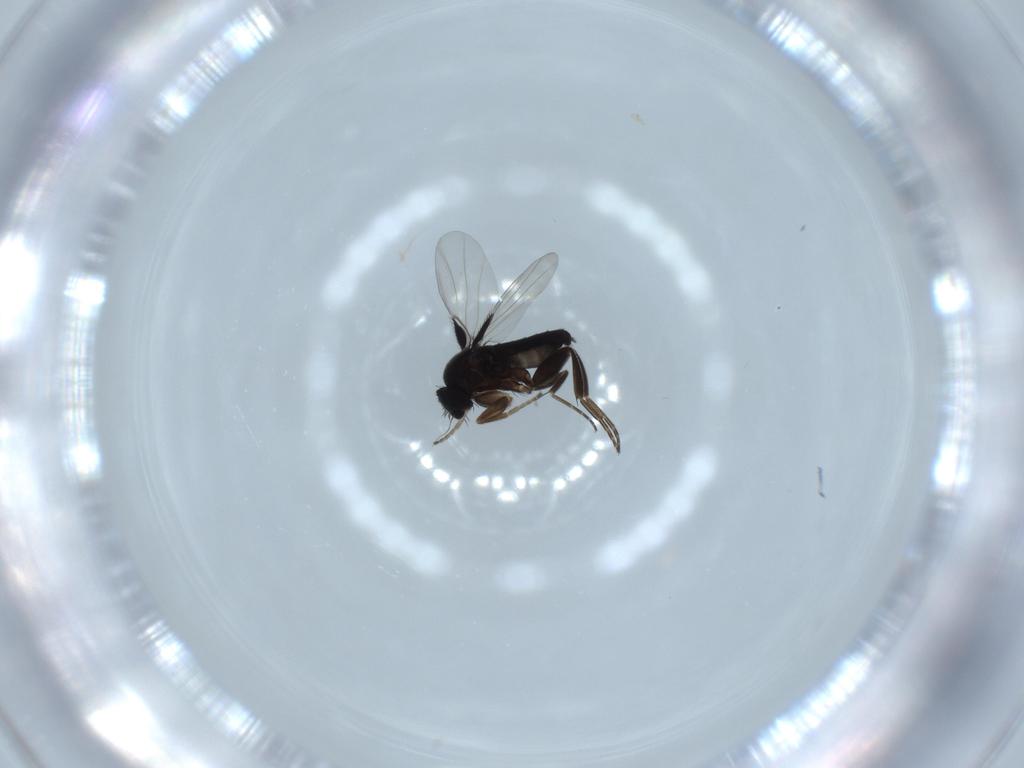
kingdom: Animalia
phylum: Arthropoda
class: Insecta
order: Diptera
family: Phoridae
